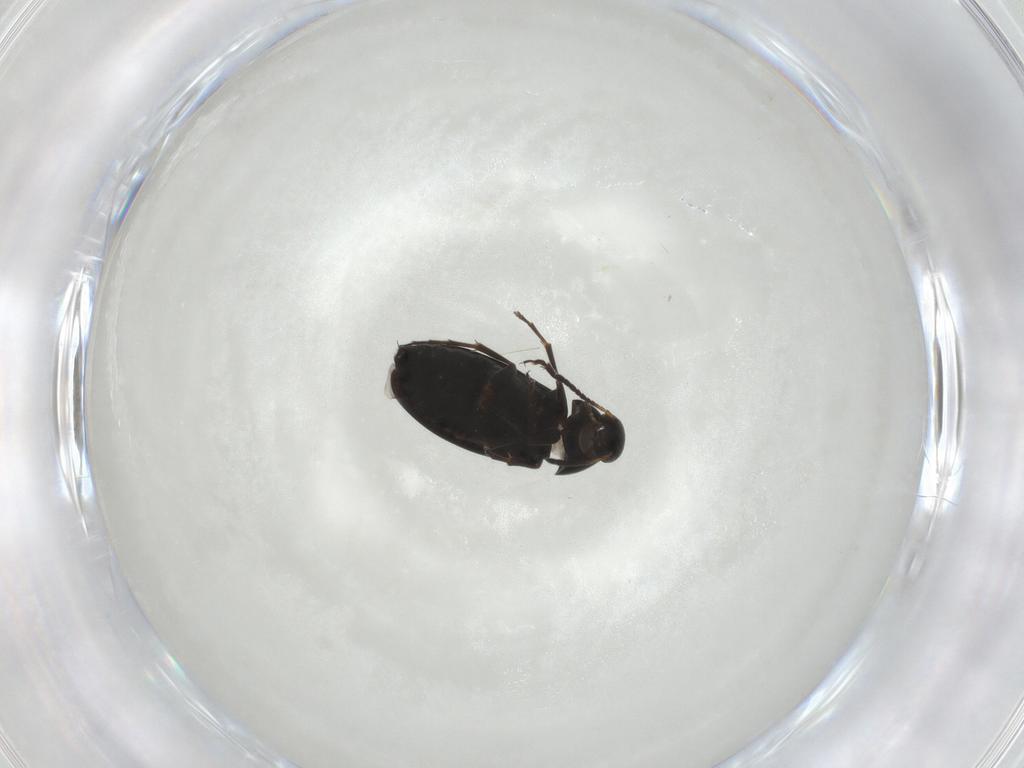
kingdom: Animalia
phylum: Arthropoda
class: Insecta
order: Coleoptera
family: Scraptiidae
